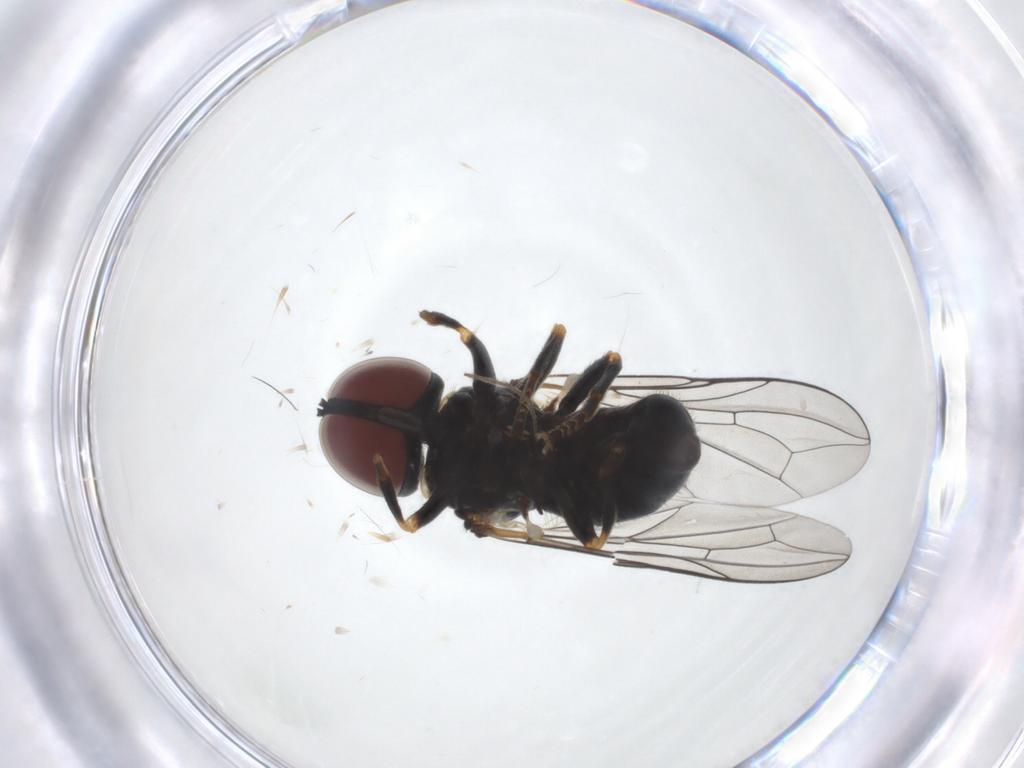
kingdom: Animalia
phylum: Arthropoda
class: Insecta
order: Diptera
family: Pipunculidae
